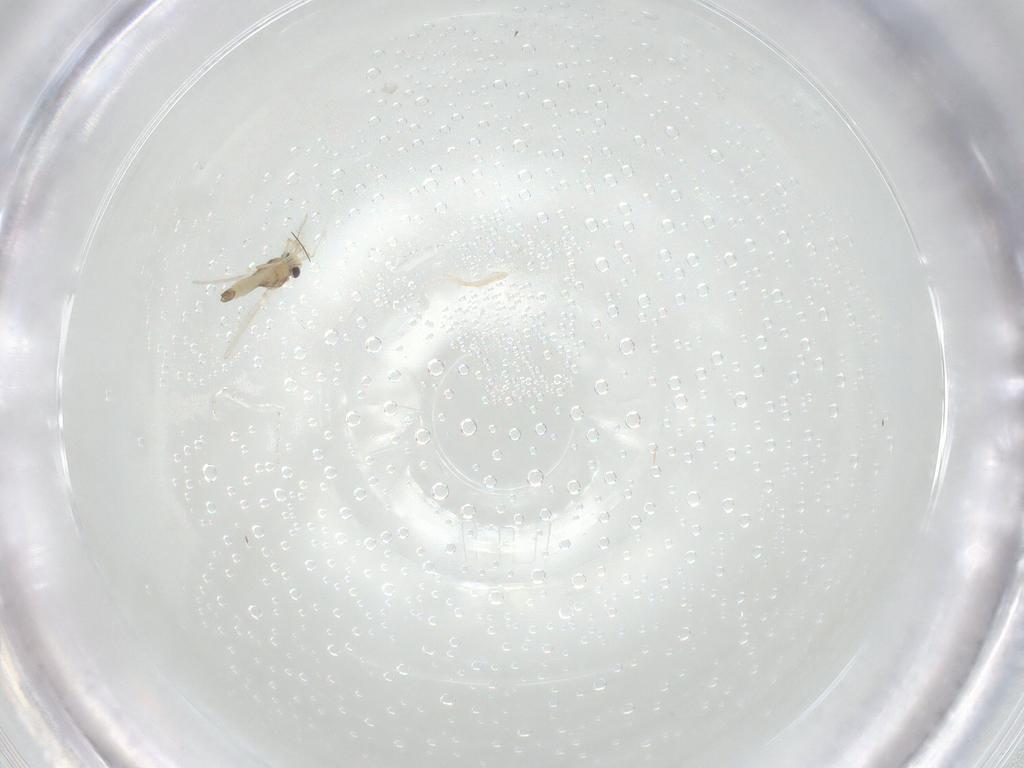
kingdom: Animalia
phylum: Arthropoda
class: Insecta
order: Diptera
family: Chironomidae
